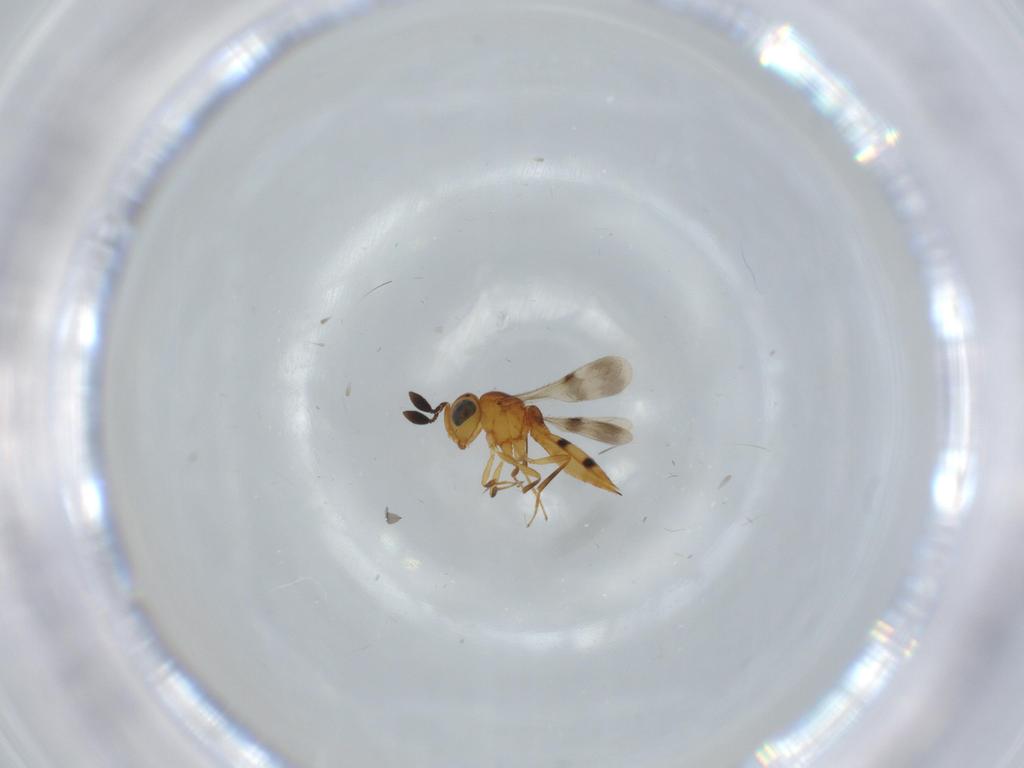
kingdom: Animalia
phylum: Arthropoda
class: Insecta
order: Hymenoptera
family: Scelionidae
